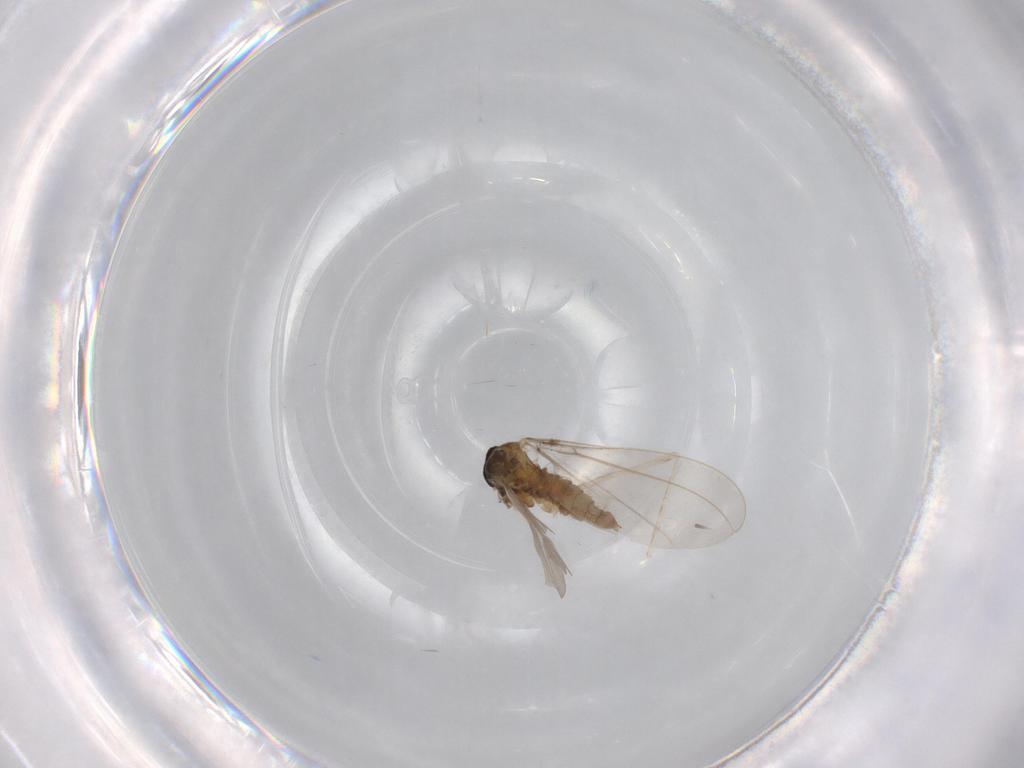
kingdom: Animalia
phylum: Arthropoda
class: Insecta
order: Diptera
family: Cecidomyiidae
